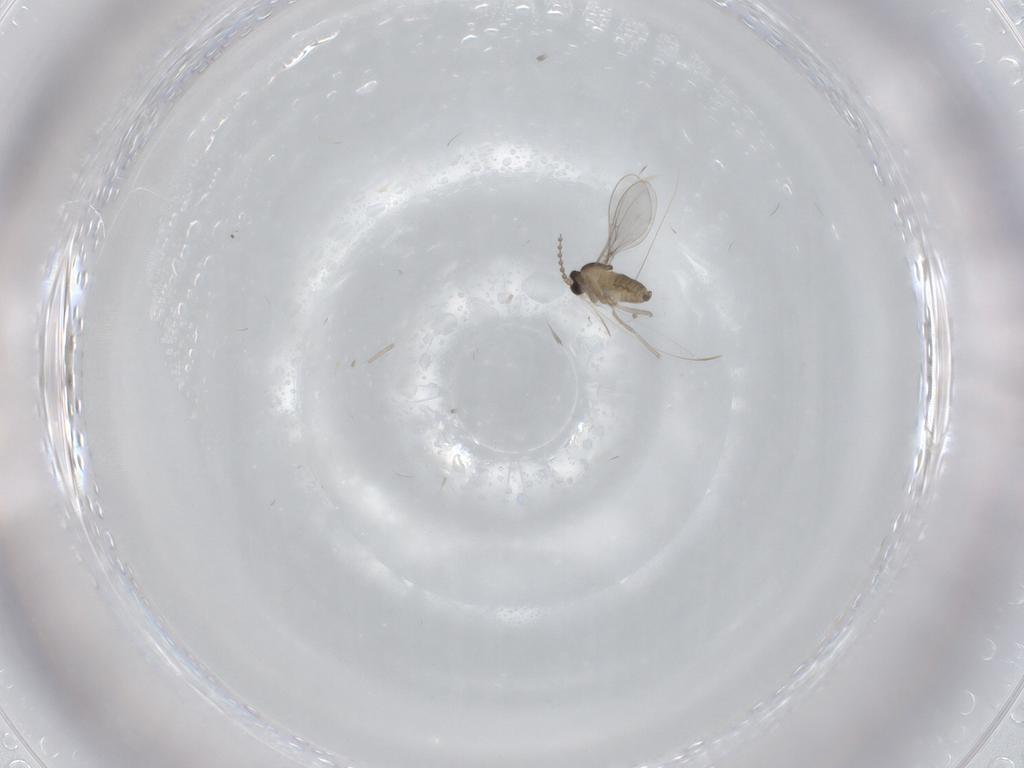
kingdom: Animalia
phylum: Arthropoda
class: Insecta
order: Diptera
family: Cecidomyiidae
